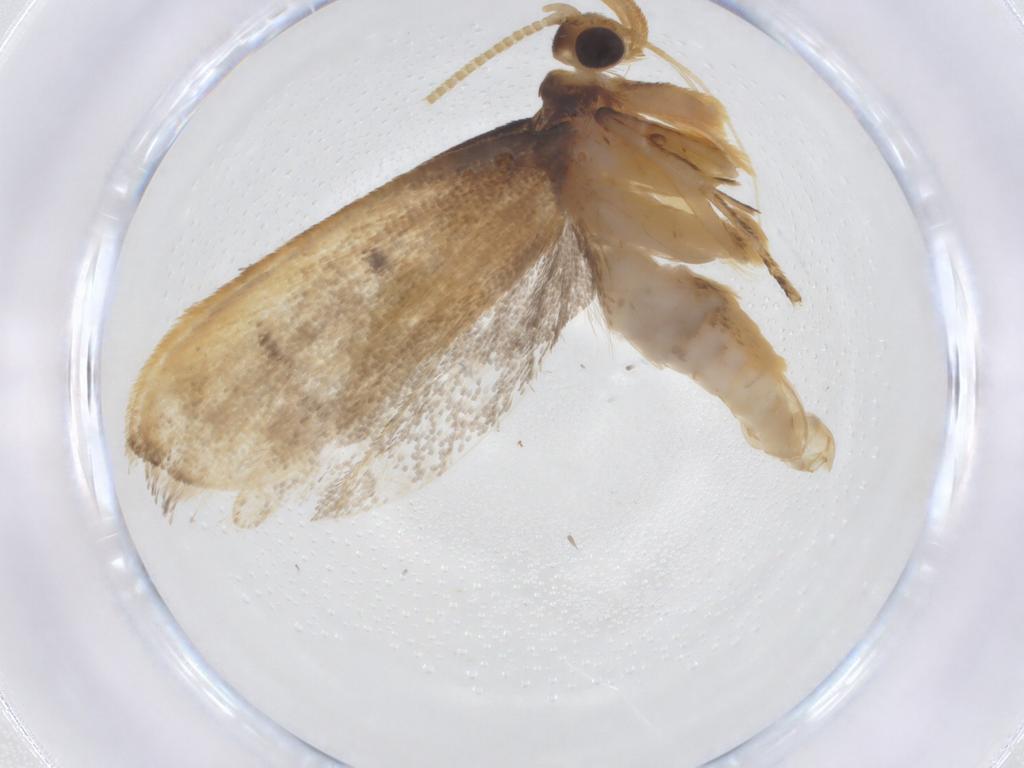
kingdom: Animalia
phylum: Arthropoda
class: Insecta
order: Lepidoptera
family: Lecithoceridae
